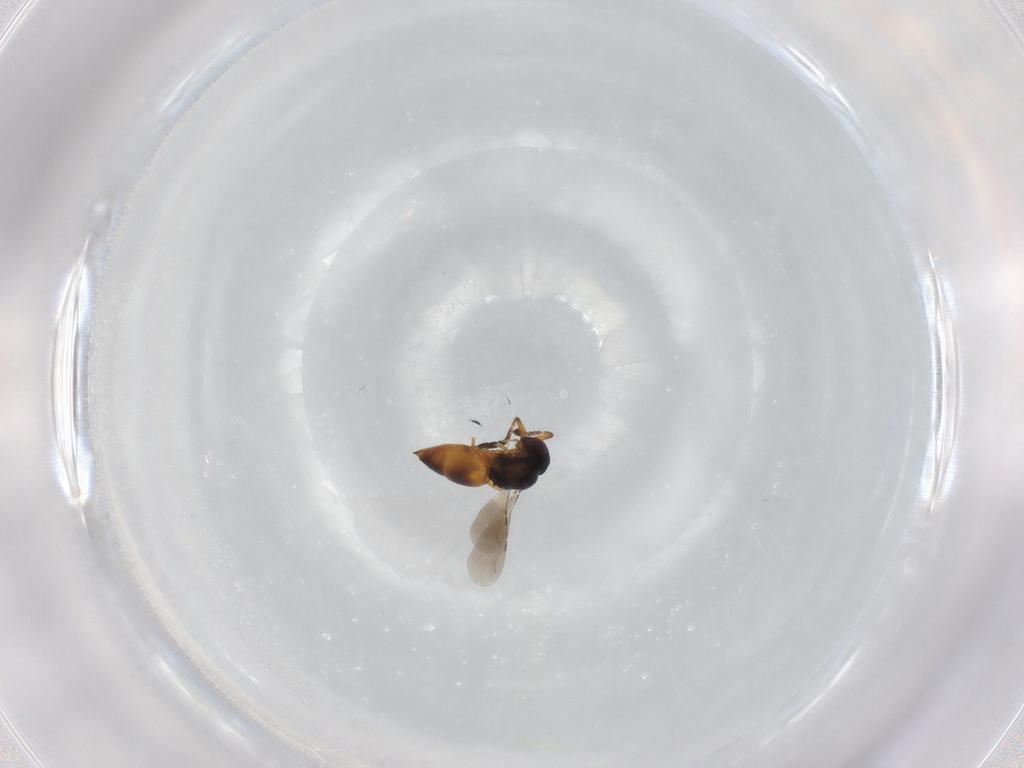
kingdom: Animalia
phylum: Arthropoda
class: Insecta
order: Hymenoptera
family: Ceraphronidae
